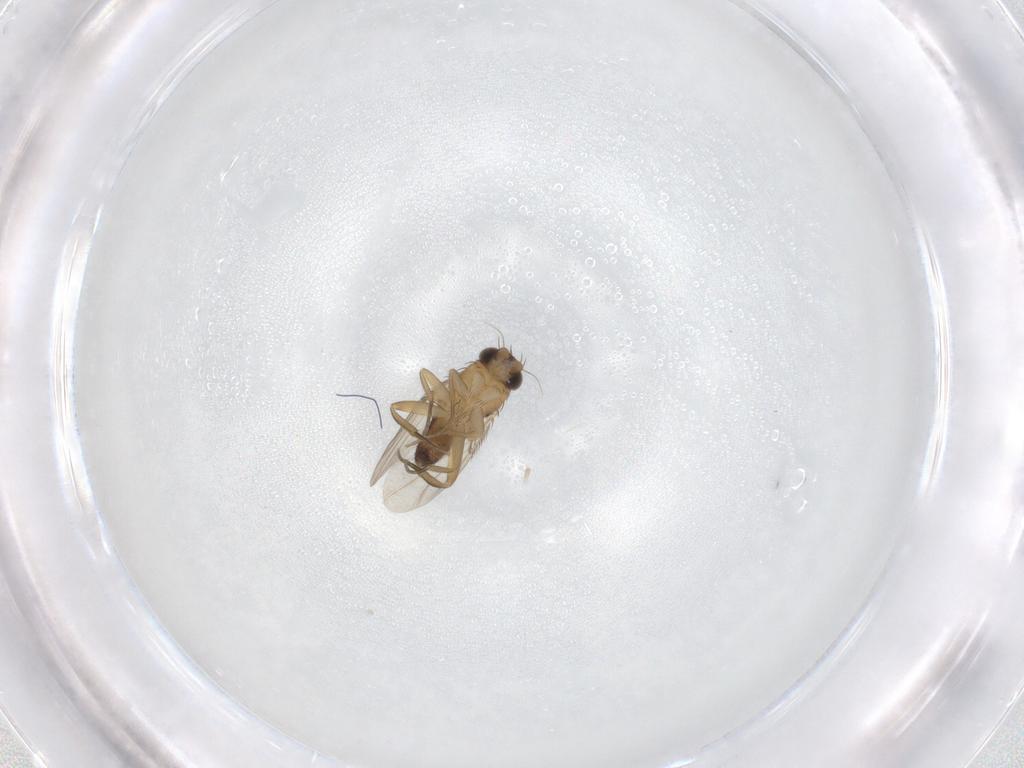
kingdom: Animalia
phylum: Arthropoda
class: Insecta
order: Diptera
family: Phoridae
